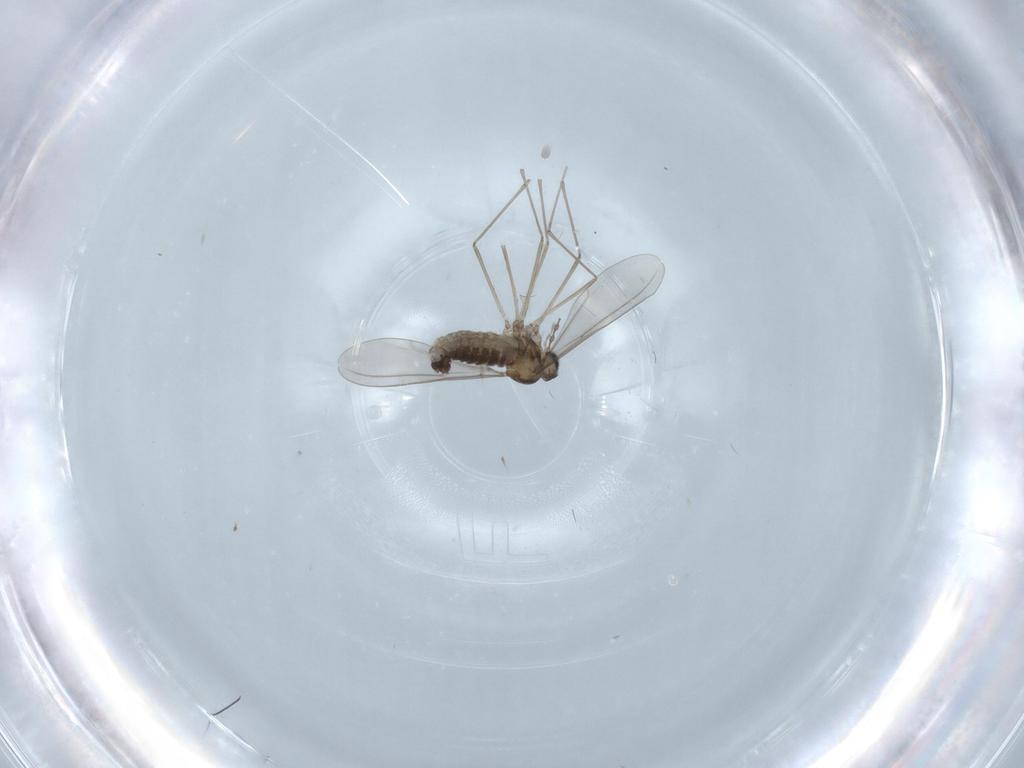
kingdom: Animalia
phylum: Arthropoda
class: Insecta
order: Diptera
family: Cecidomyiidae
